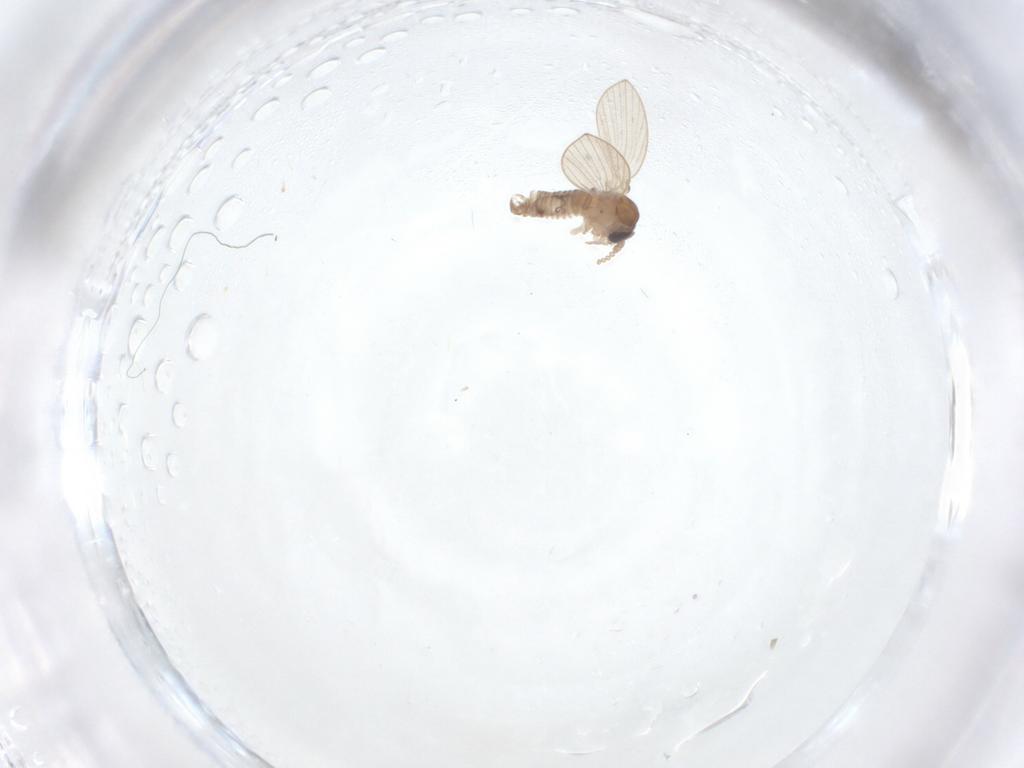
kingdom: Animalia
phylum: Arthropoda
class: Insecta
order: Diptera
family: Psychodidae
